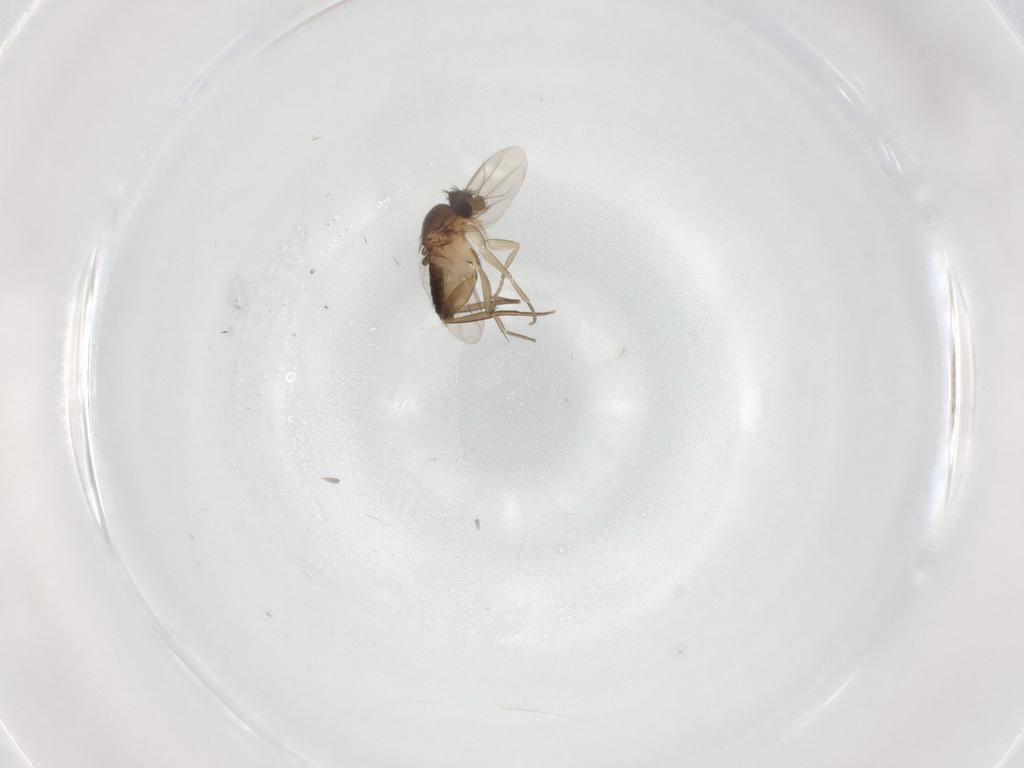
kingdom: Animalia
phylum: Arthropoda
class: Insecta
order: Diptera
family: Phoridae
